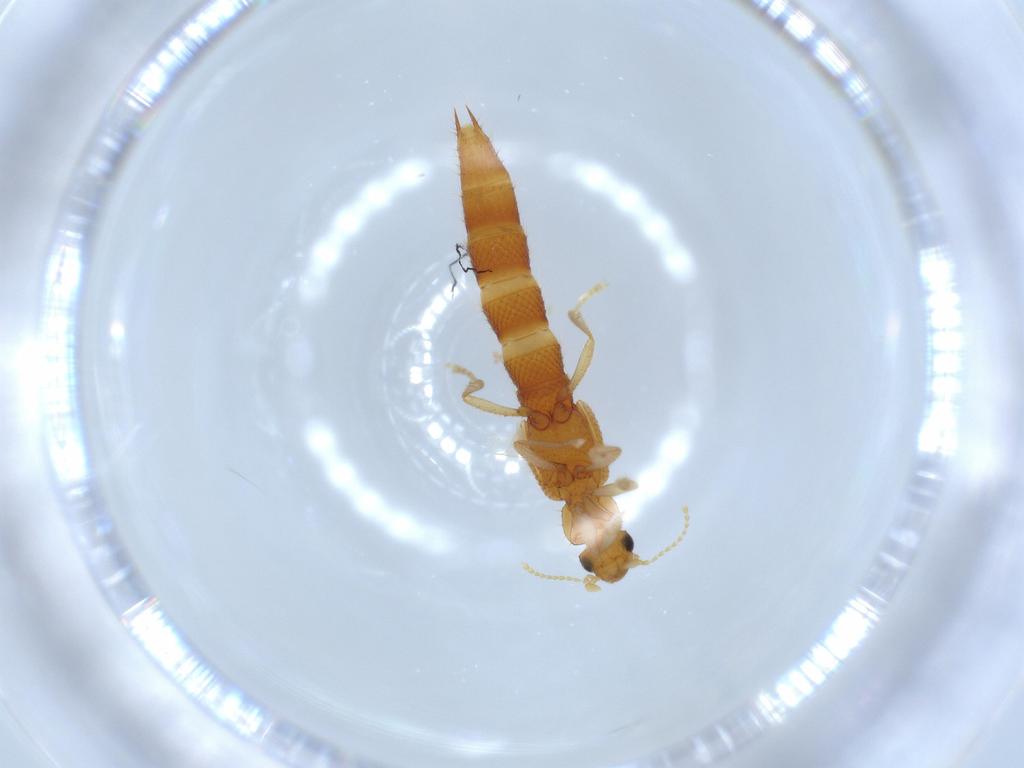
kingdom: Animalia
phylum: Arthropoda
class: Insecta
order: Coleoptera
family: Staphylinidae
